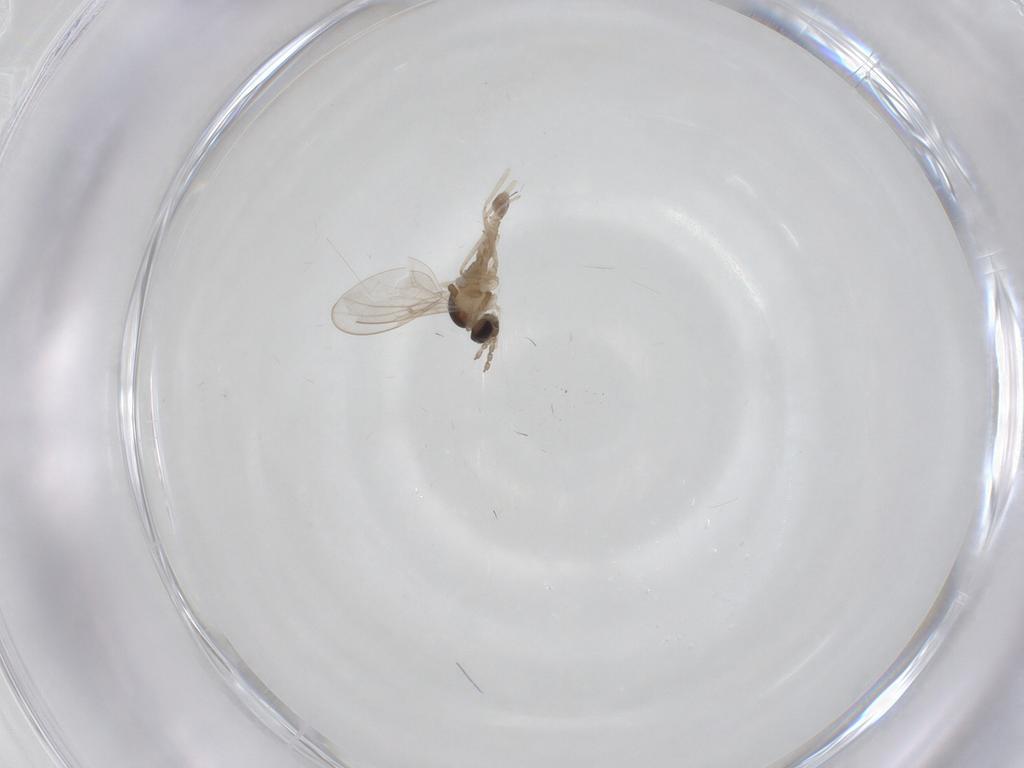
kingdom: Animalia
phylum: Arthropoda
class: Insecta
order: Diptera
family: Cecidomyiidae
